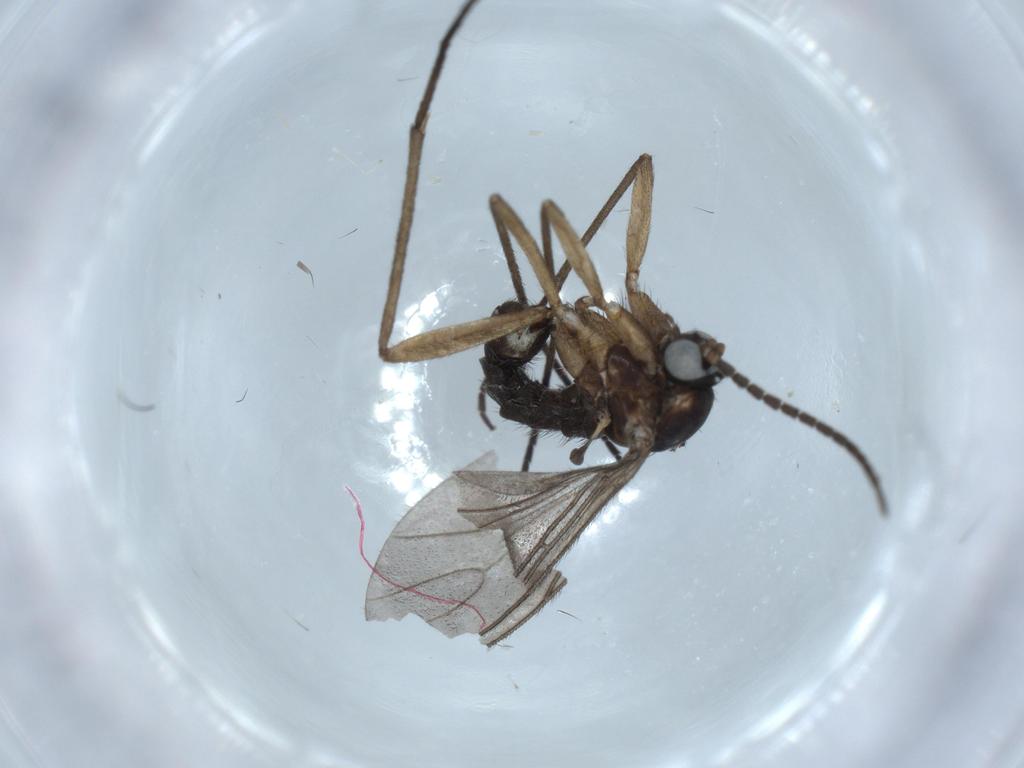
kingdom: Animalia
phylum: Arthropoda
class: Insecta
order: Diptera
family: Sciaridae
